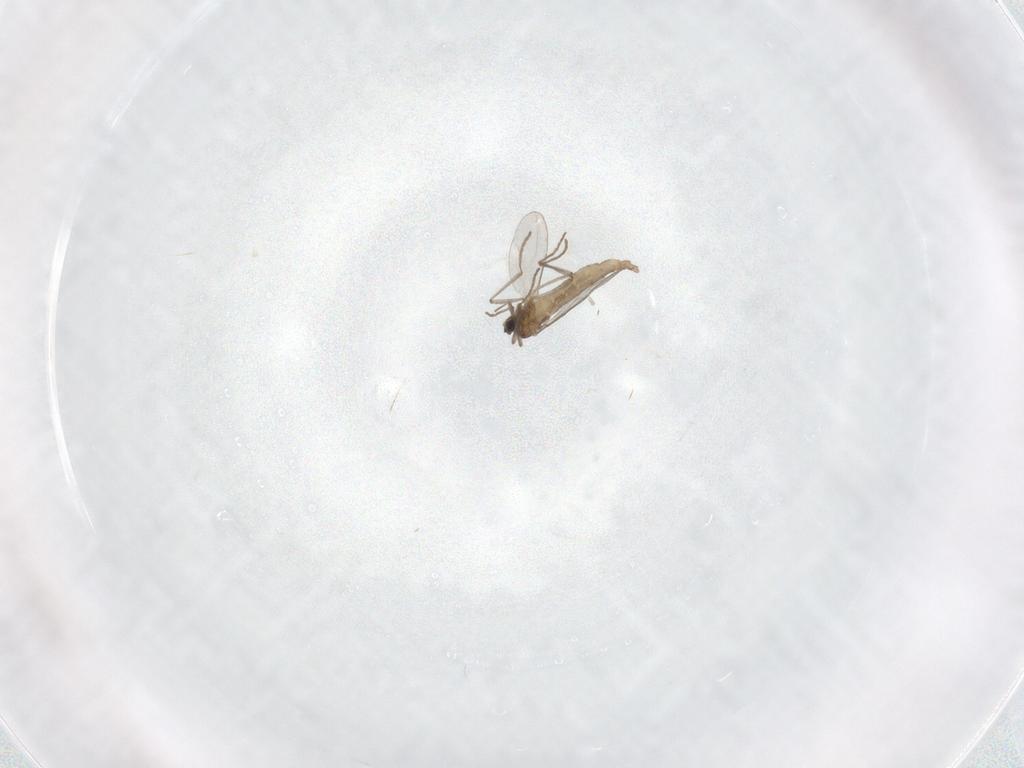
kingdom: Animalia
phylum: Arthropoda
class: Insecta
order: Diptera
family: Cecidomyiidae
